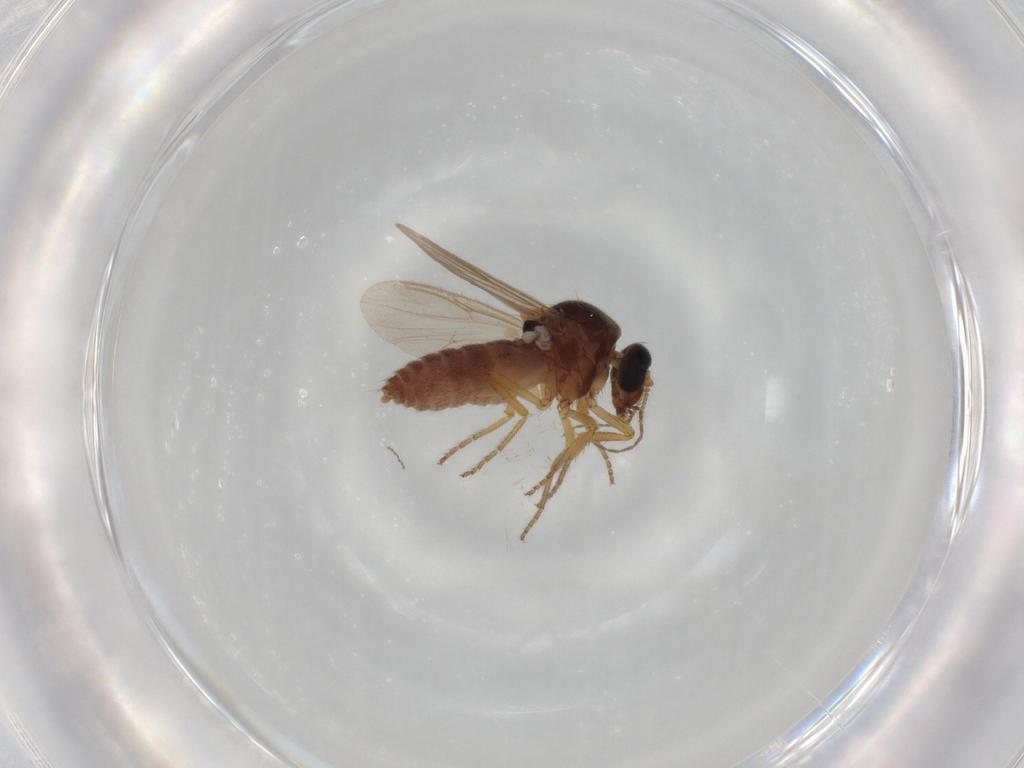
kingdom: Animalia
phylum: Arthropoda
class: Insecta
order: Diptera
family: Ceratopogonidae
